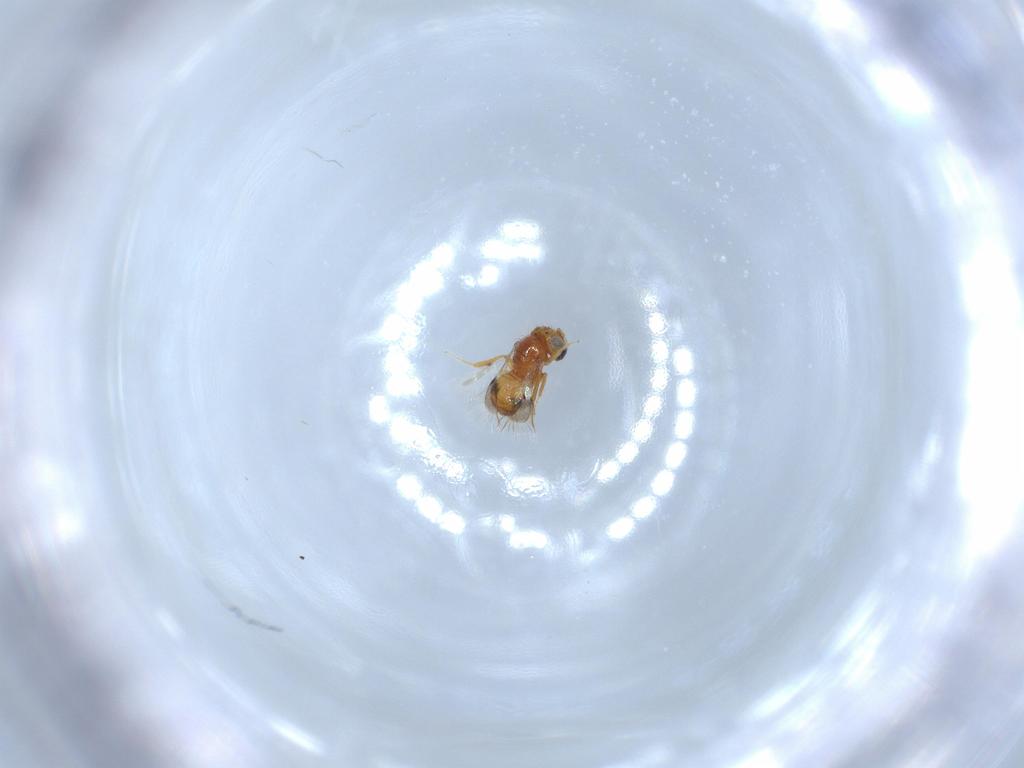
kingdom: Animalia
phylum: Arthropoda
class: Insecta
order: Hymenoptera
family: Scelionidae
